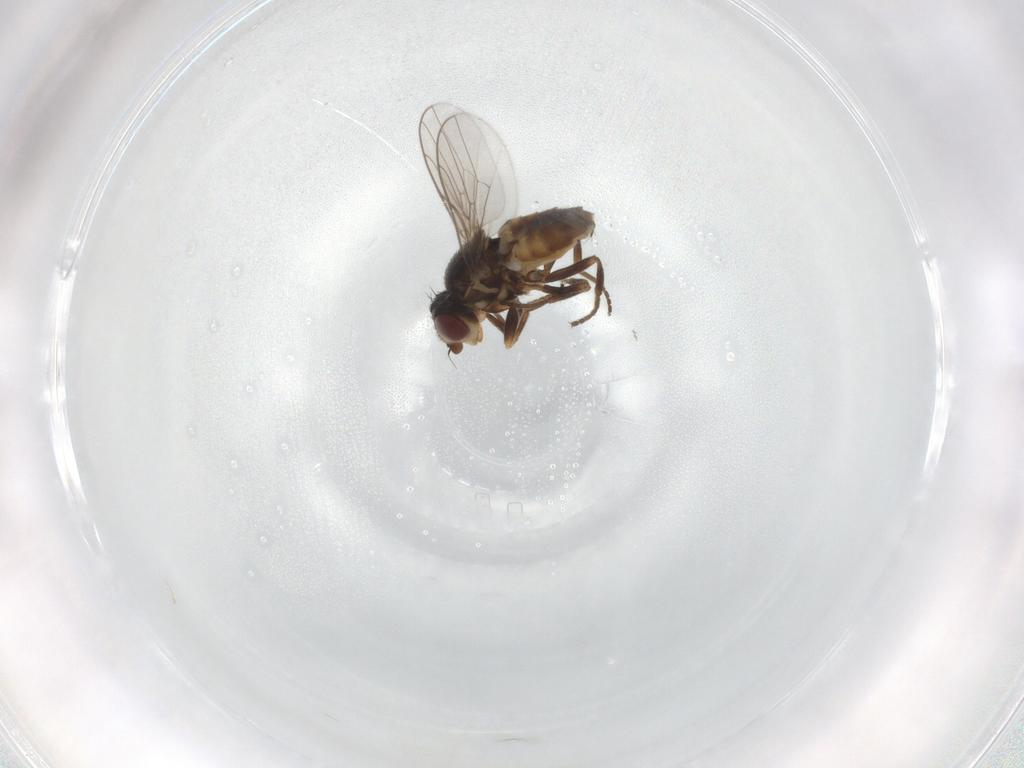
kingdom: Animalia
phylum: Arthropoda
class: Insecta
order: Diptera
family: Chloropidae
